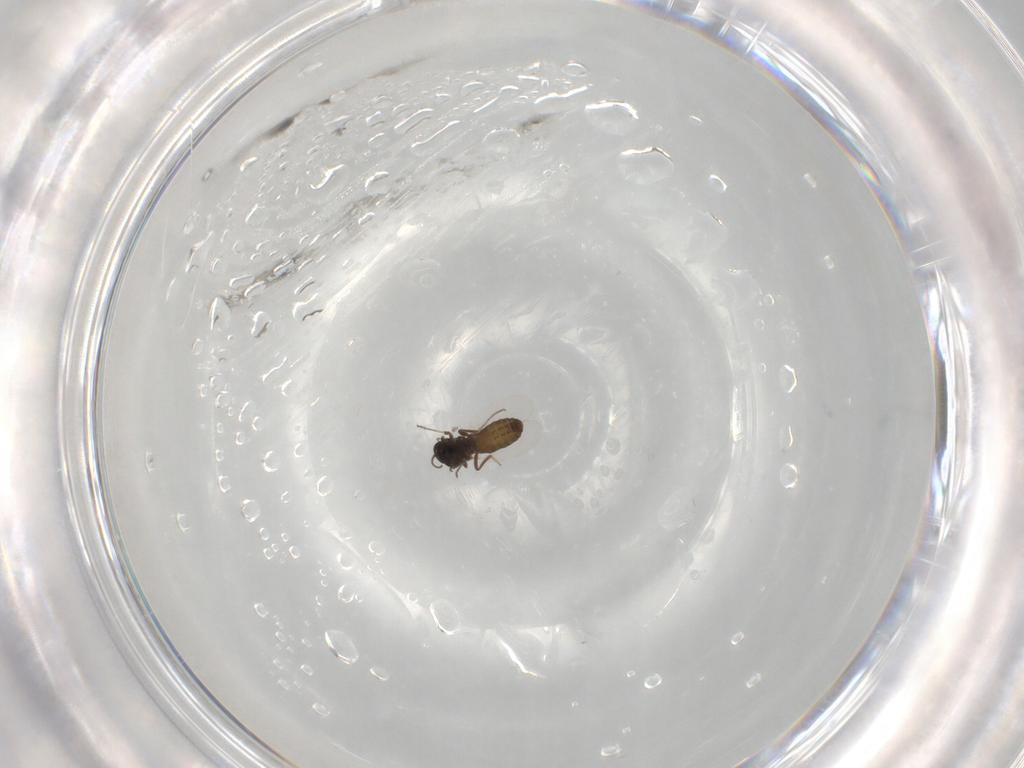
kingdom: Animalia
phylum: Arthropoda
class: Insecta
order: Diptera
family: Ceratopogonidae
